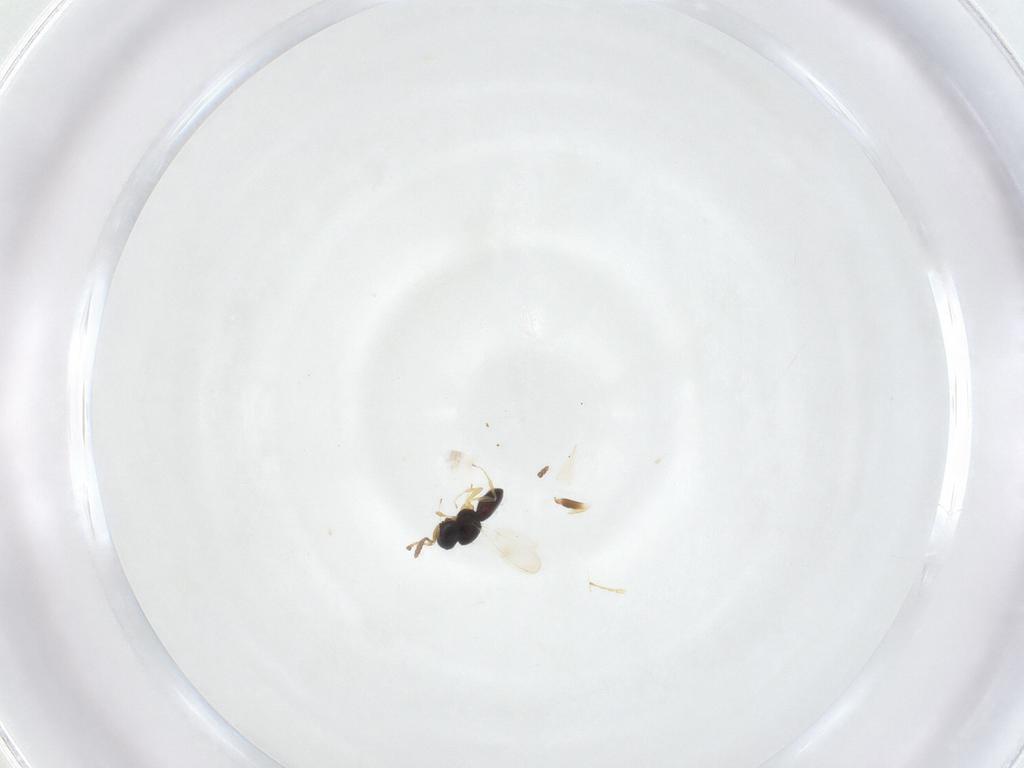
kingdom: Animalia
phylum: Arthropoda
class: Insecta
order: Hymenoptera
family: Encyrtidae
